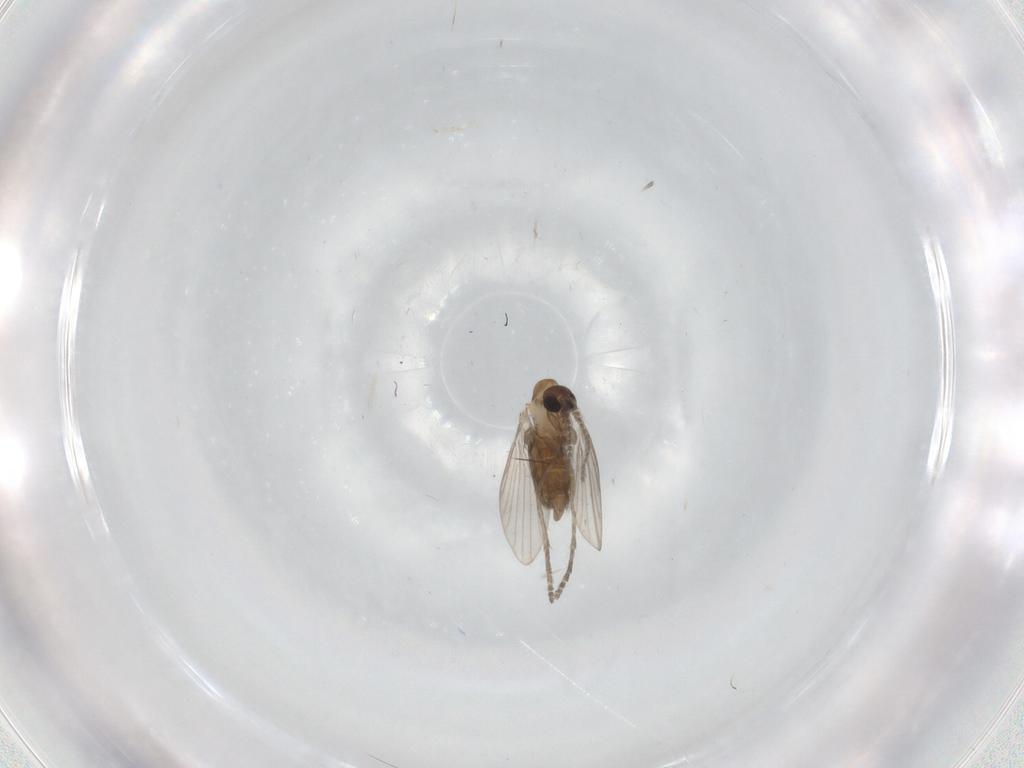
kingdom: Animalia
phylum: Arthropoda
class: Insecta
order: Diptera
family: Psychodidae
